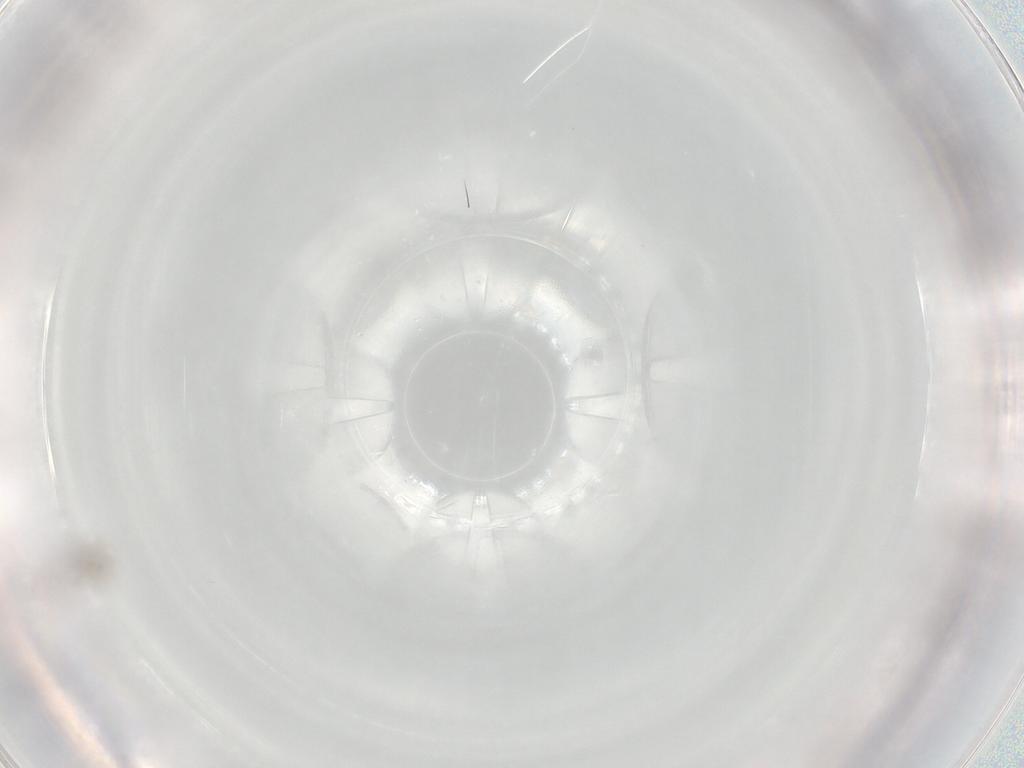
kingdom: Animalia
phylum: Arthropoda
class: Insecta
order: Diptera
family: Cecidomyiidae
